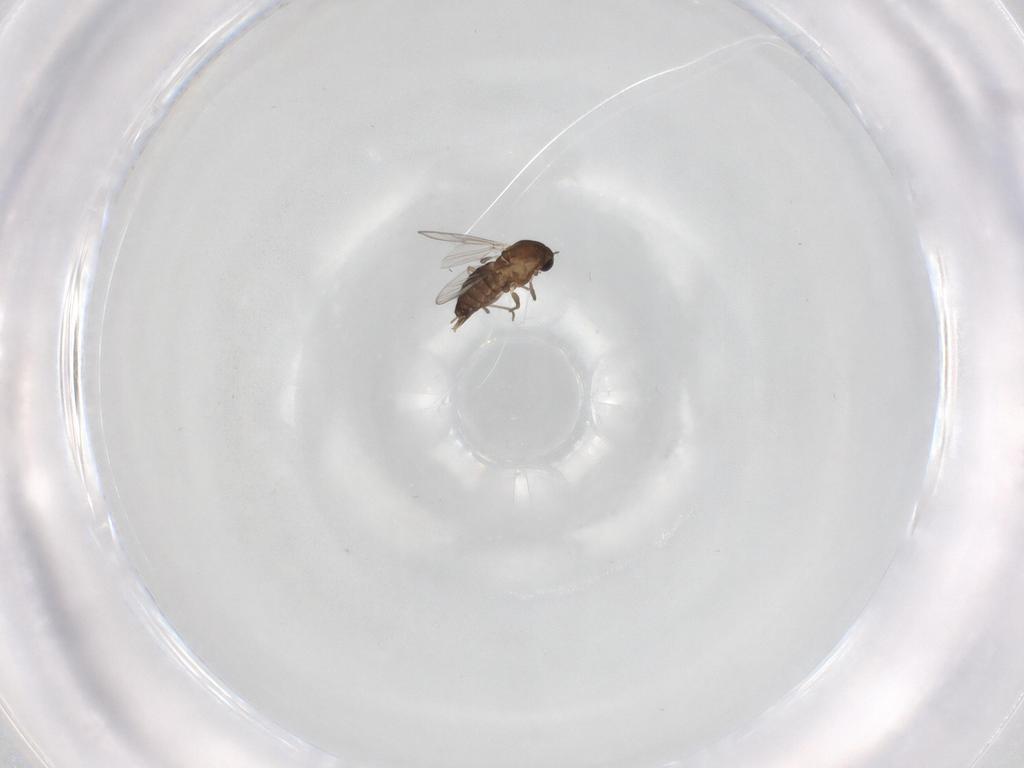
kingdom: Animalia
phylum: Arthropoda
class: Insecta
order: Diptera
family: Chironomidae
